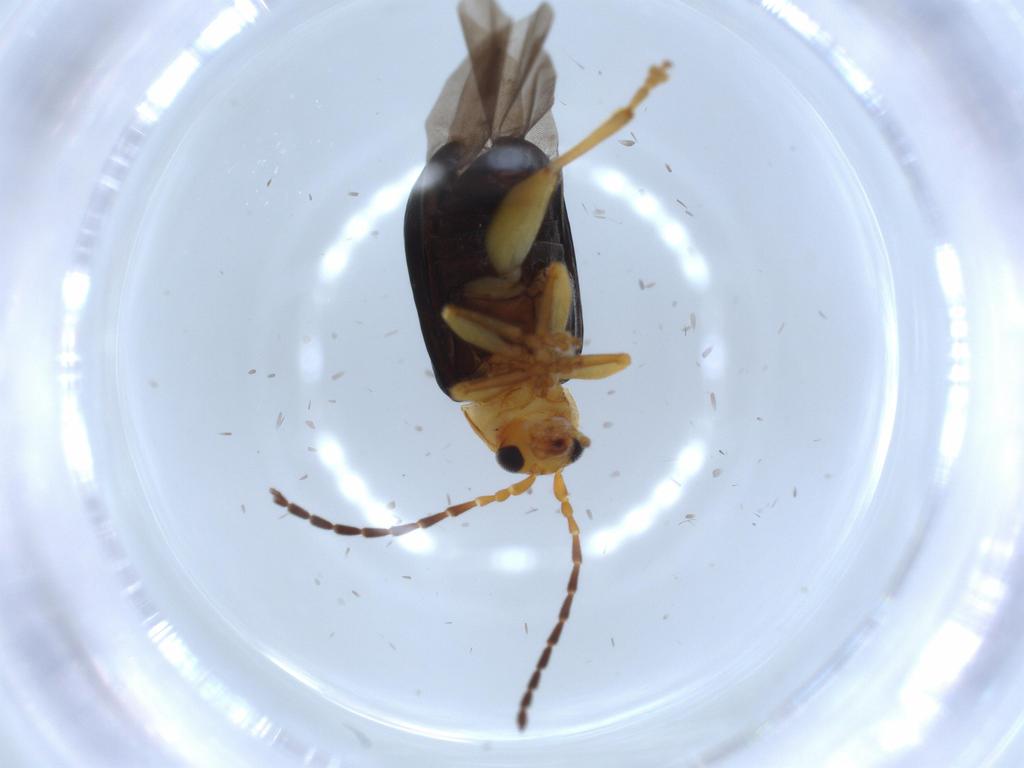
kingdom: Animalia
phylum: Arthropoda
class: Insecta
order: Coleoptera
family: Chrysomelidae
